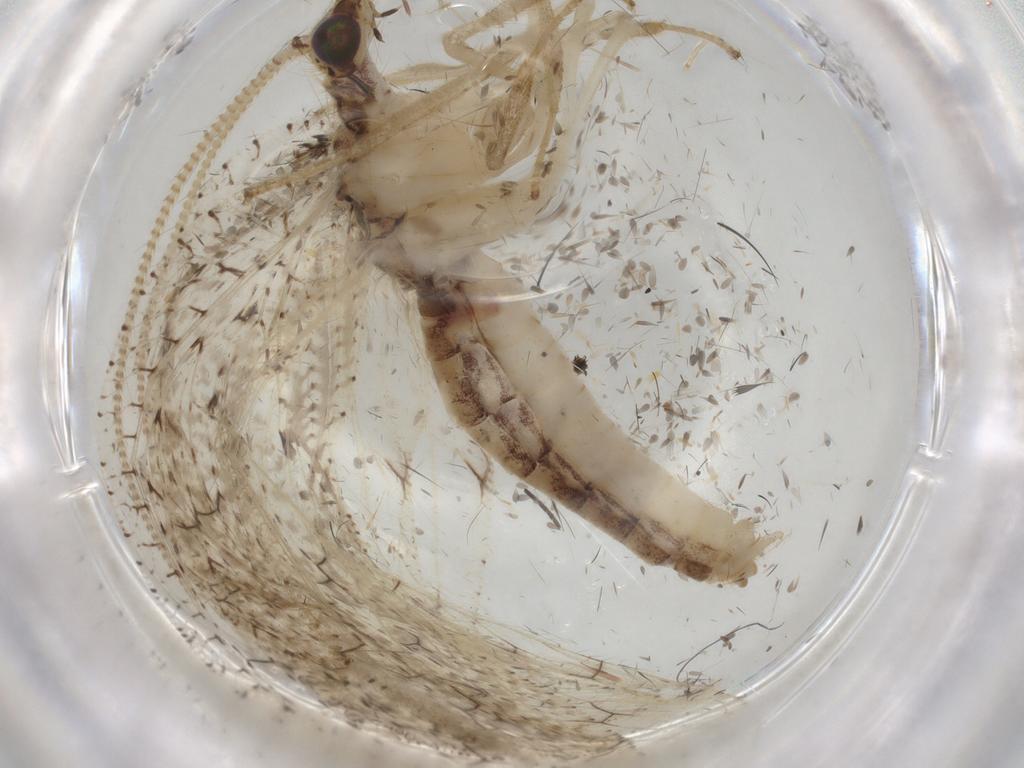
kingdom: Animalia
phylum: Arthropoda
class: Insecta
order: Neuroptera
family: Hemerobiidae
